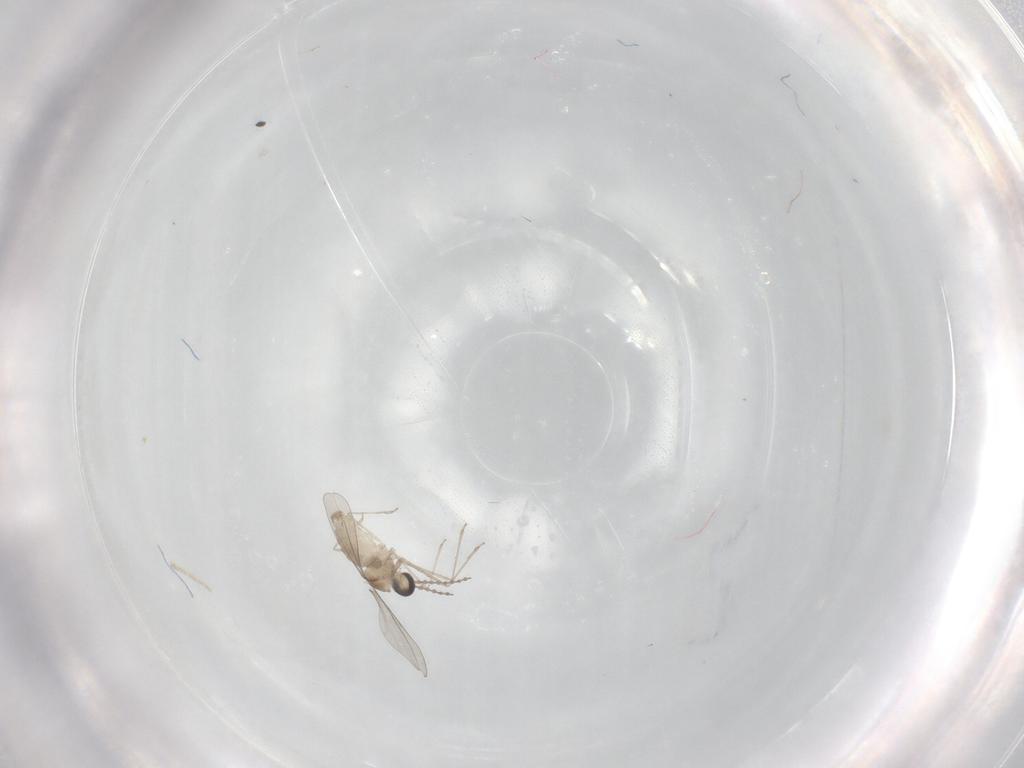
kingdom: Animalia
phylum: Arthropoda
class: Insecta
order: Diptera
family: Cecidomyiidae
